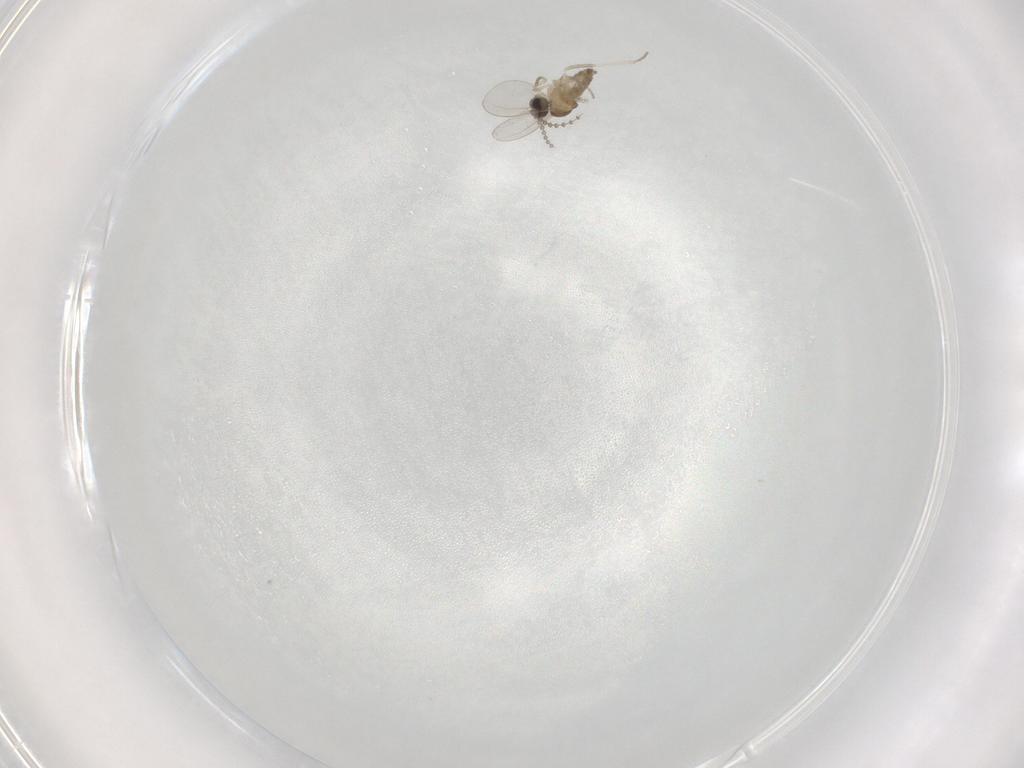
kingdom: Animalia
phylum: Arthropoda
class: Insecta
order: Diptera
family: Cecidomyiidae
